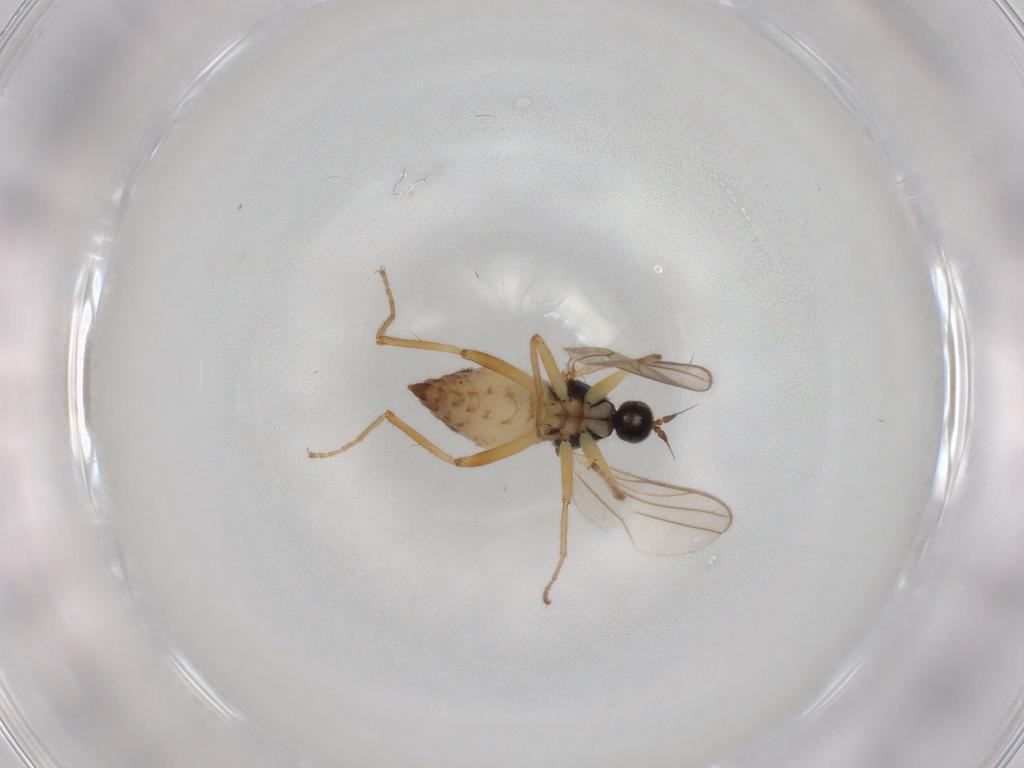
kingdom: Animalia
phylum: Arthropoda
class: Insecta
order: Diptera
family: Hybotidae
